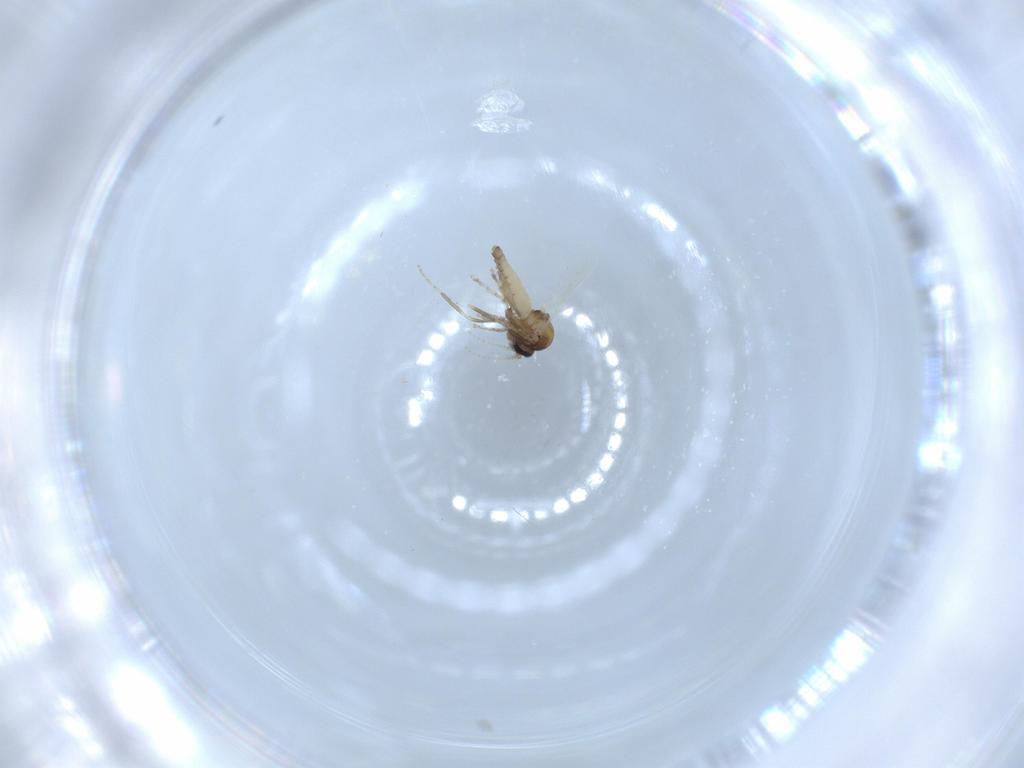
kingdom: Animalia
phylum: Arthropoda
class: Insecta
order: Diptera
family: Ceratopogonidae
